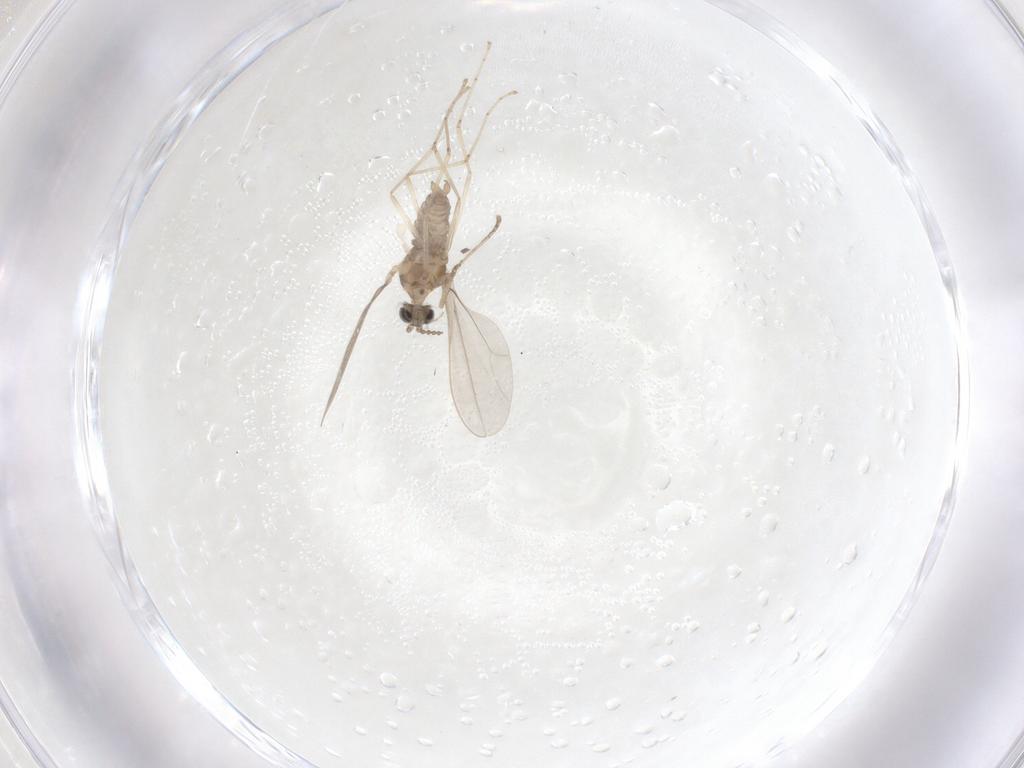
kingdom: Animalia
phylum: Arthropoda
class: Insecta
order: Diptera
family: Cecidomyiidae
